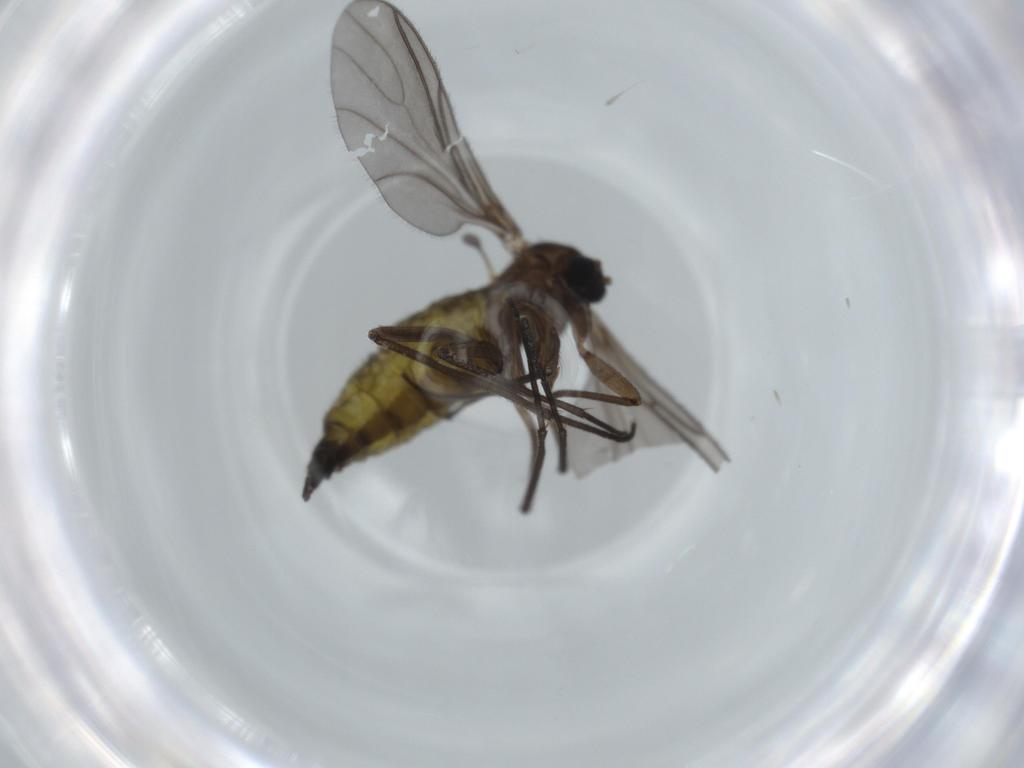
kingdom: Animalia
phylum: Arthropoda
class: Insecta
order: Diptera
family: Sciaridae
